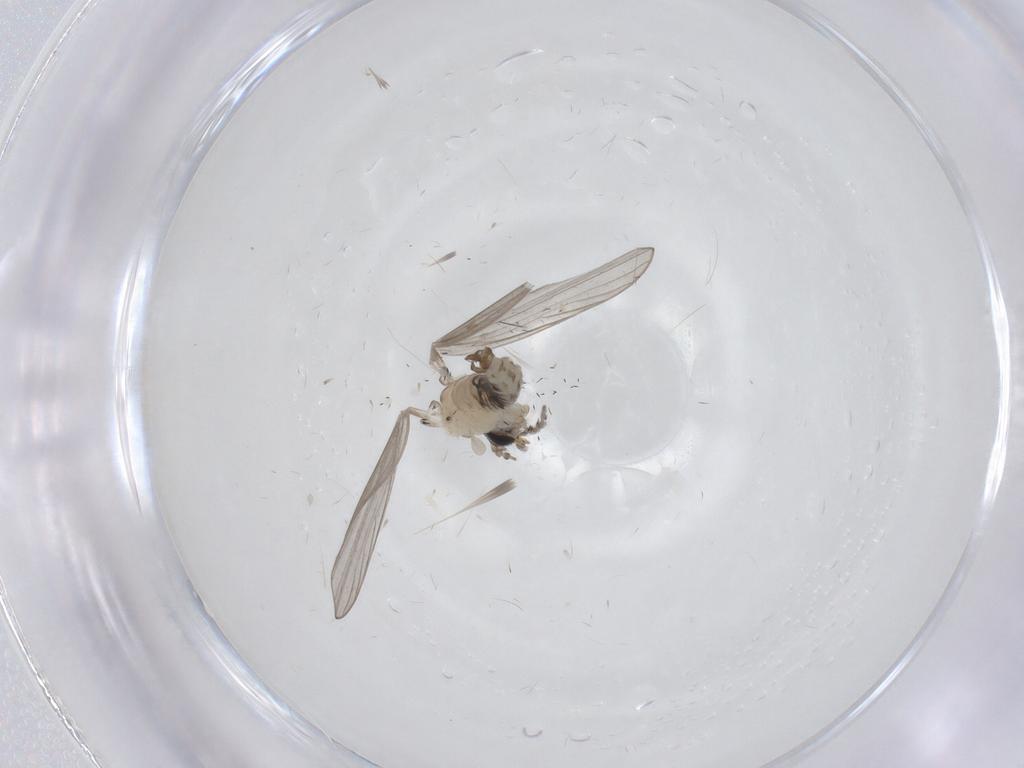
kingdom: Animalia
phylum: Arthropoda
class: Insecta
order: Diptera
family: Psychodidae
